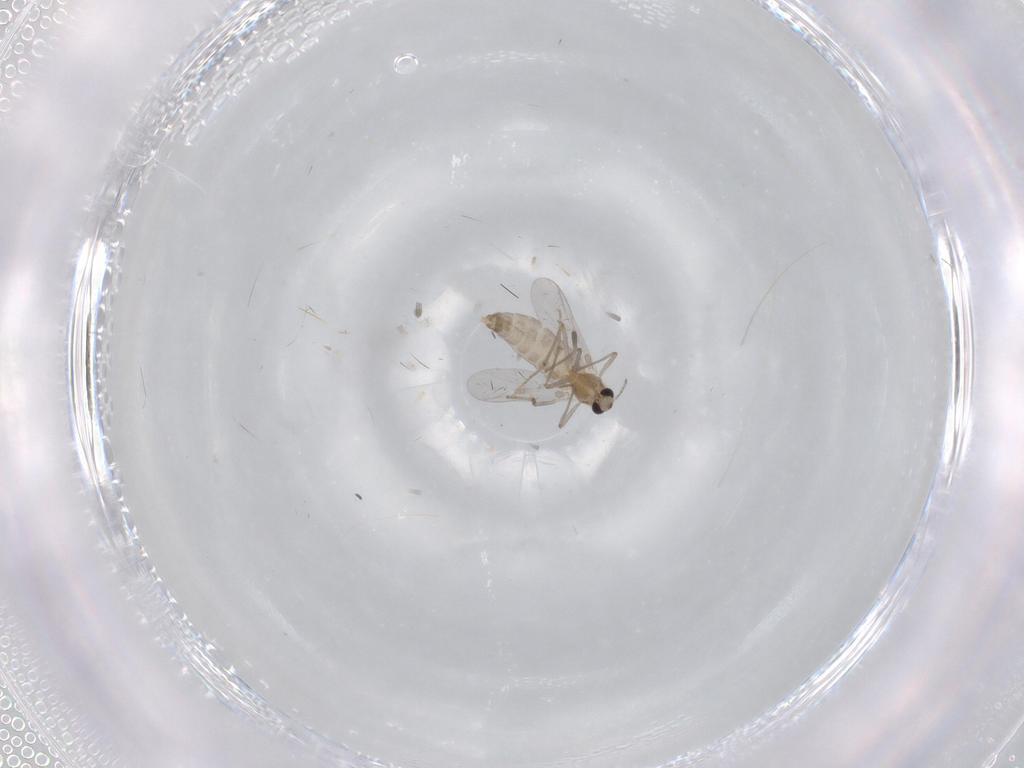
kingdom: Animalia
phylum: Arthropoda
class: Insecta
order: Diptera
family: Chironomidae
